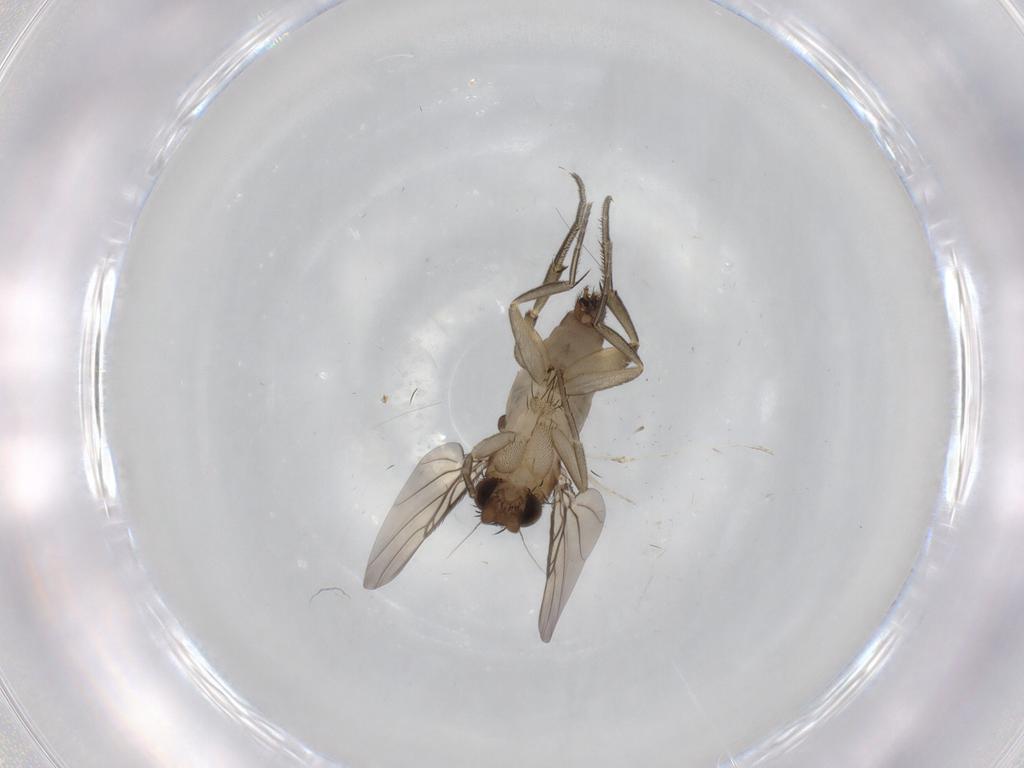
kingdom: Animalia
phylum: Arthropoda
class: Insecta
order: Diptera
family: Phoridae
